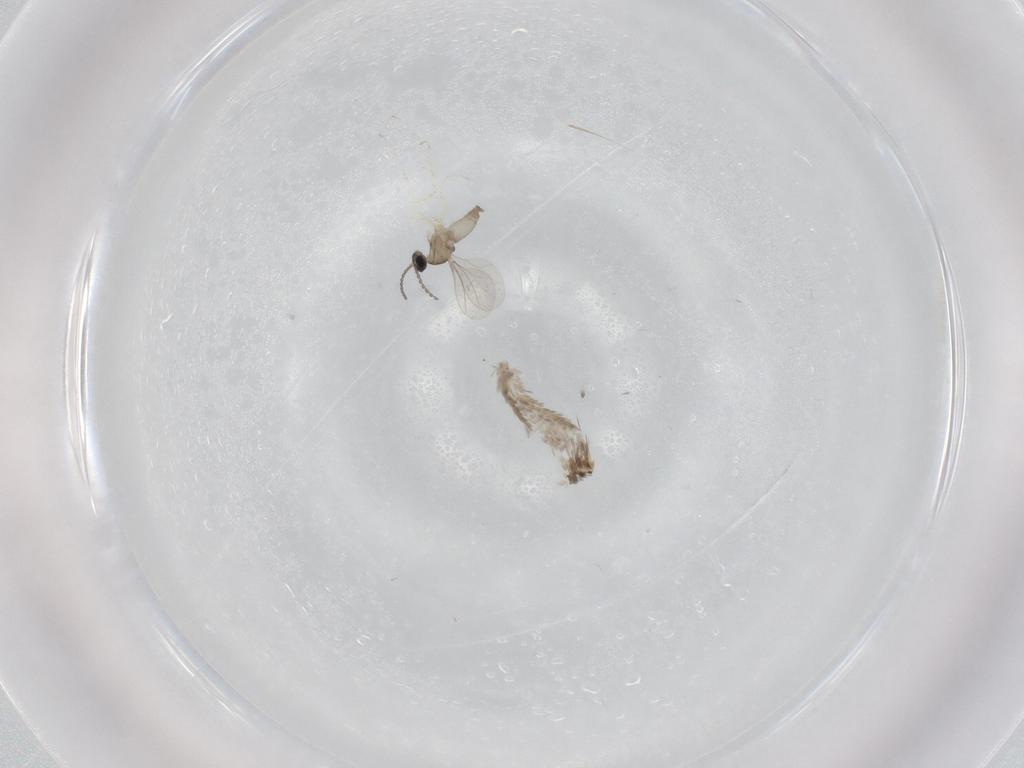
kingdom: Animalia
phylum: Arthropoda
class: Insecta
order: Diptera
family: Cecidomyiidae
